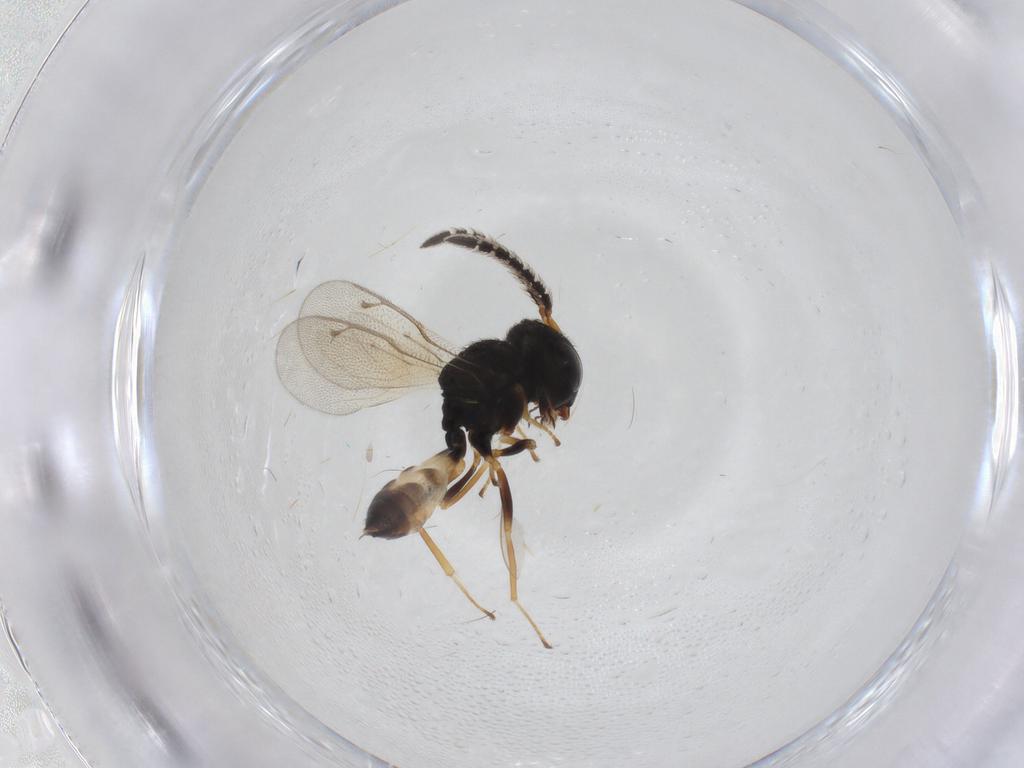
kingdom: Animalia
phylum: Arthropoda
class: Insecta
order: Hymenoptera
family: Pteromalidae
